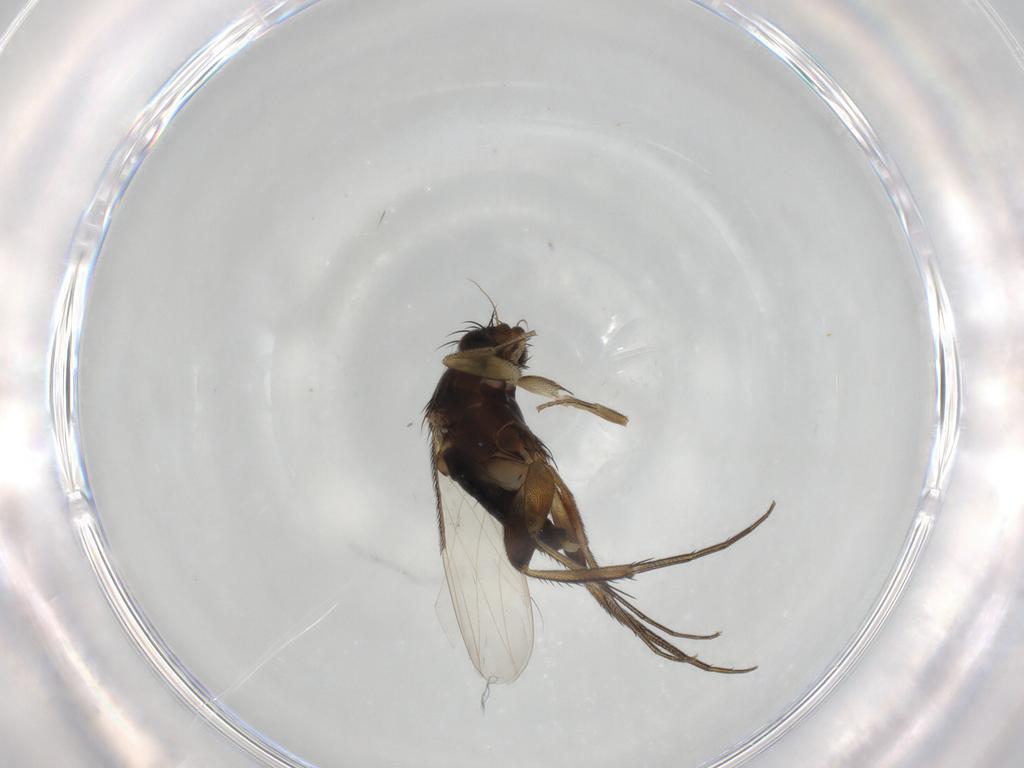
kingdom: Animalia
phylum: Arthropoda
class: Insecta
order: Diptera
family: Phoridae
